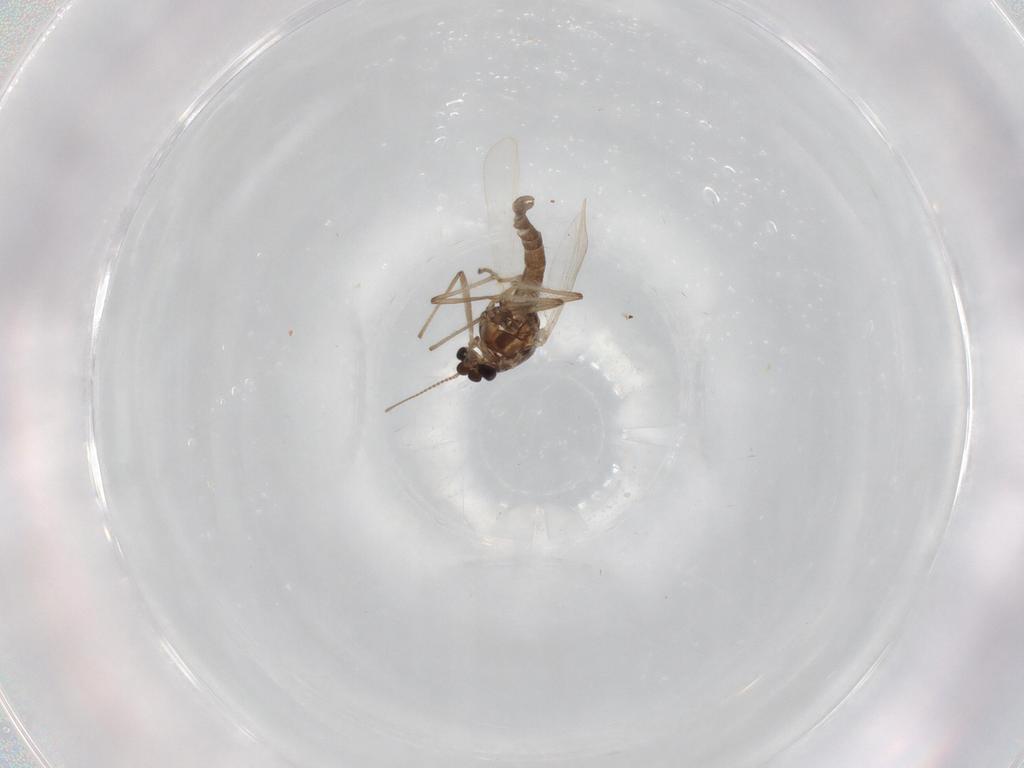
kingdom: Animalia
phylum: Arthropoda
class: Insecta
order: Diptera
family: Chironomidae
